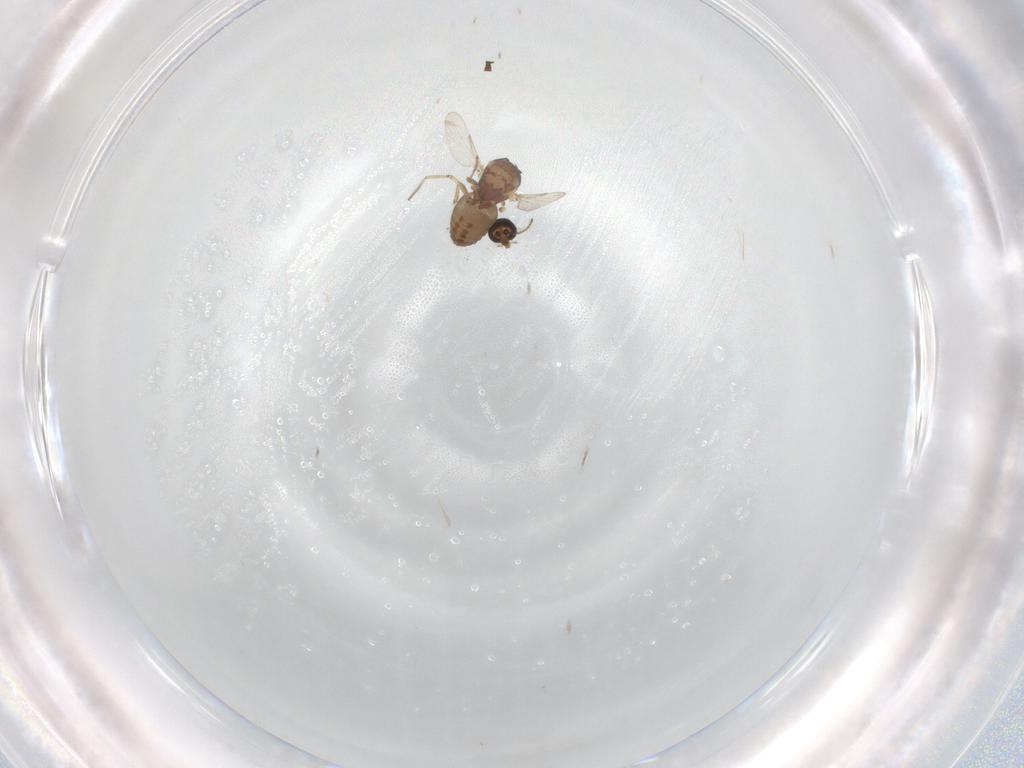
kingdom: Animalia
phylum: Arthropoda
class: Insecta
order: Diptera
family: Ceratopogonidae
